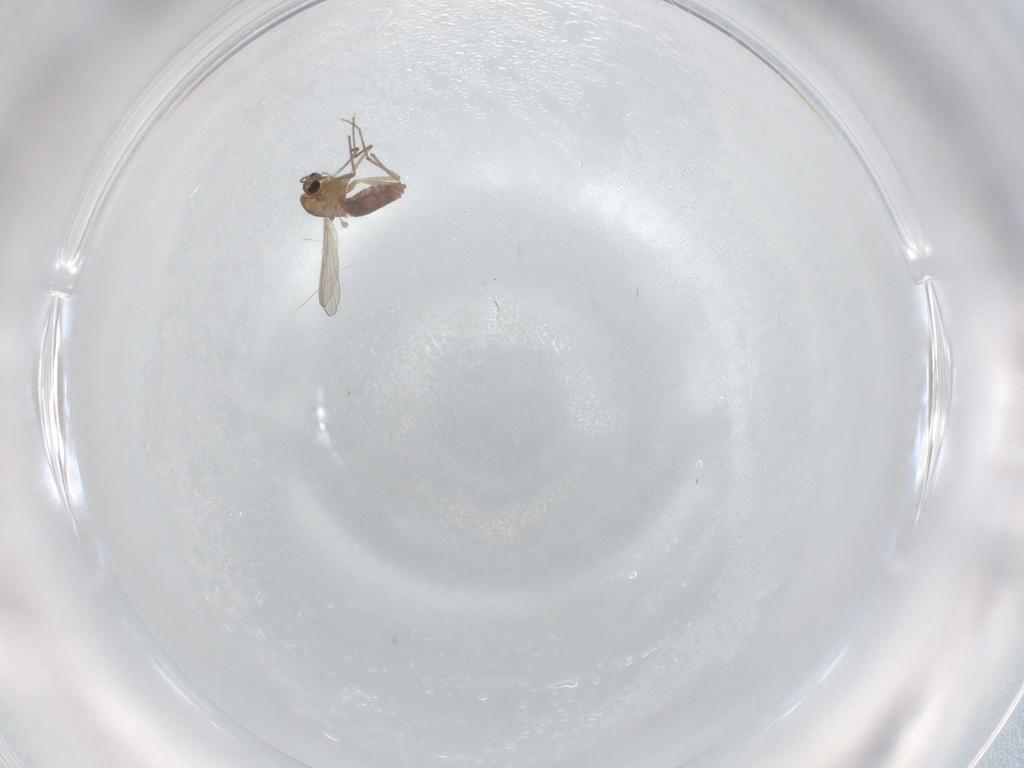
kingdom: Animalia
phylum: Arthropoda
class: Insecta
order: Diptera
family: Chironomidae
